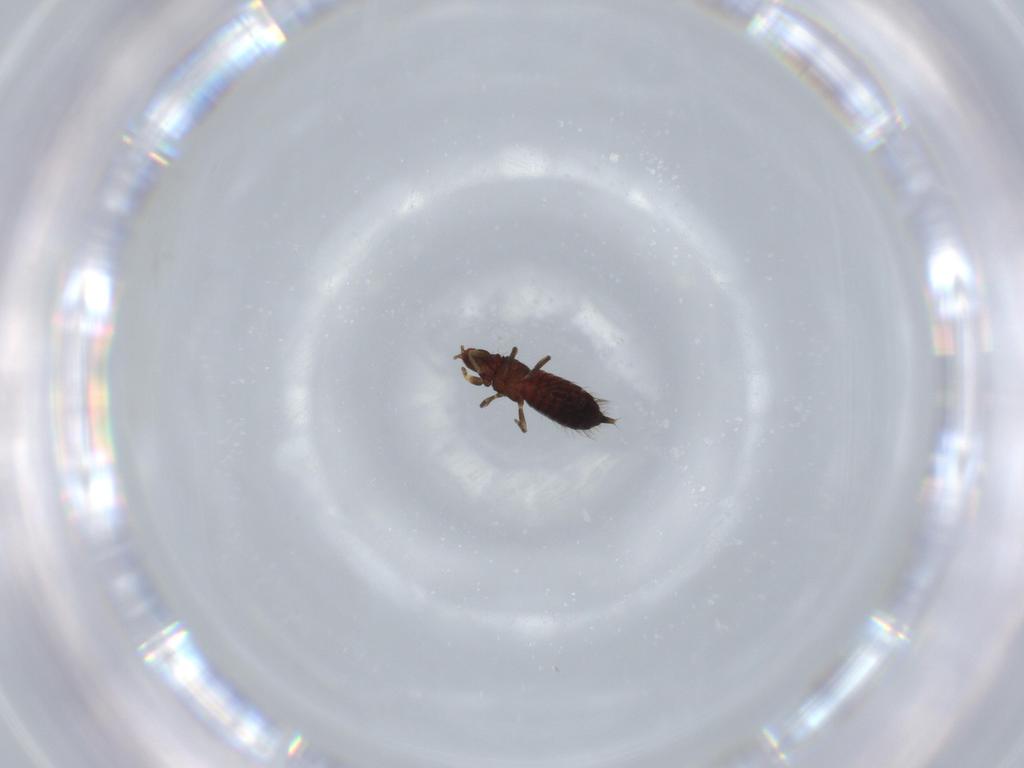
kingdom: Animalia
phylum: Arthropoda
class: Insecta
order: Thysanoptera
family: Phlaeothripidae
